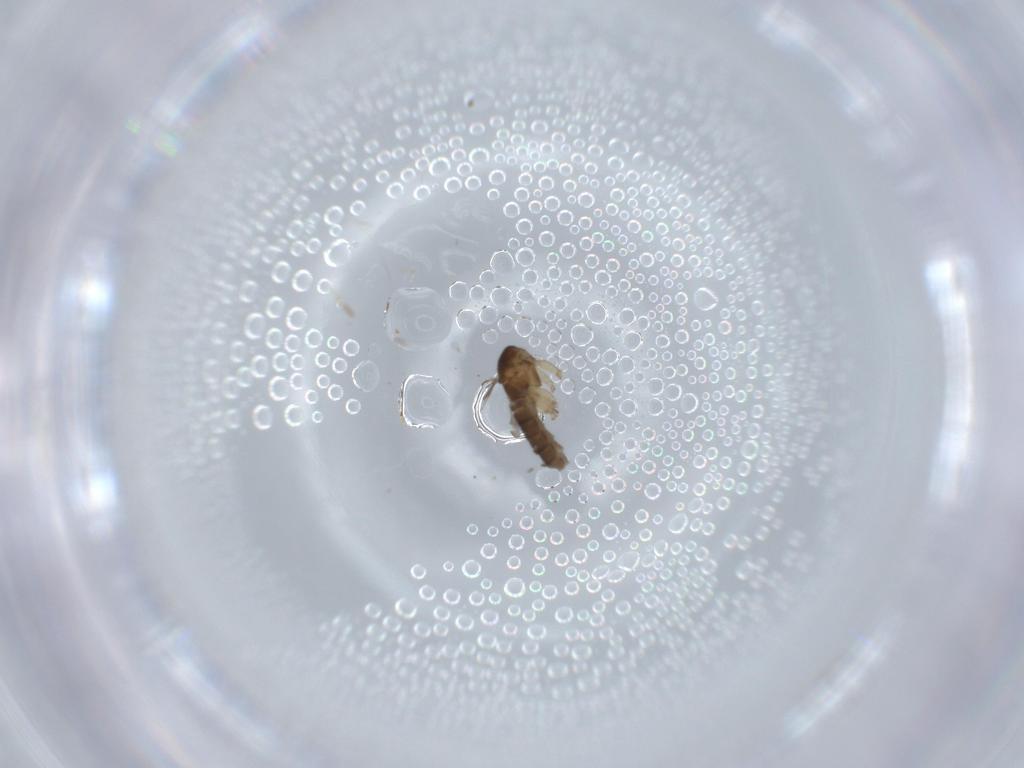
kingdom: Animalia
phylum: Arthropoda
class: Insecta
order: Diptera
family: Sciaridae
